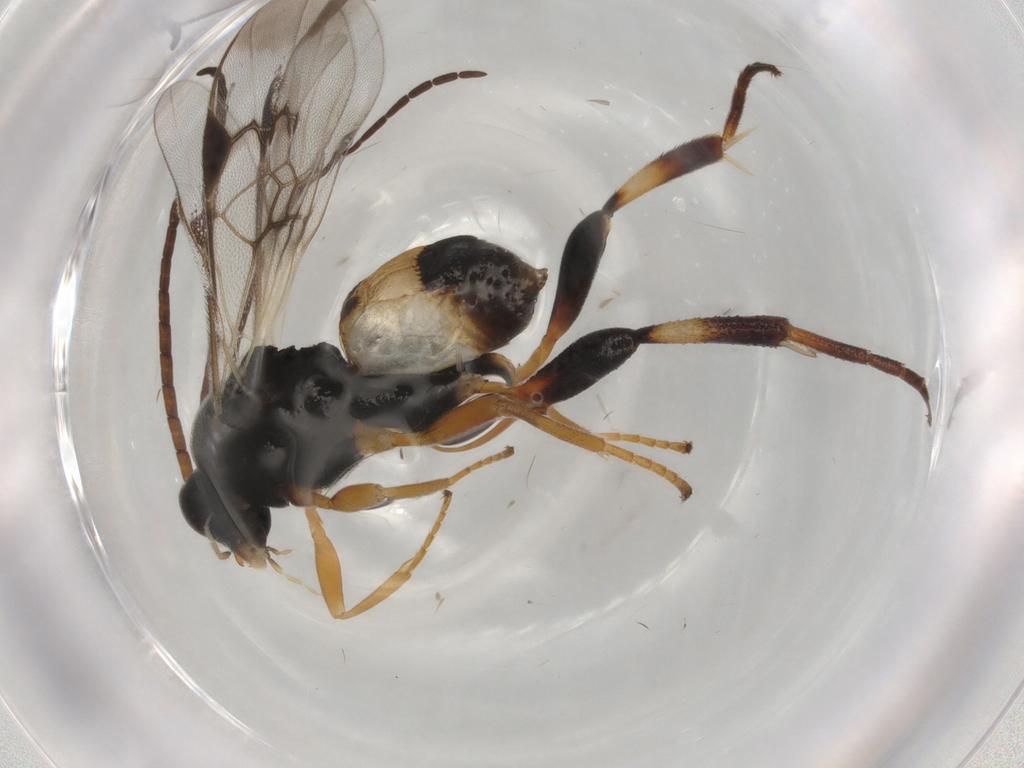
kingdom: Animalia
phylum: Arthropoda
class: Insecta
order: Hymenoptera
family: Braconidae
